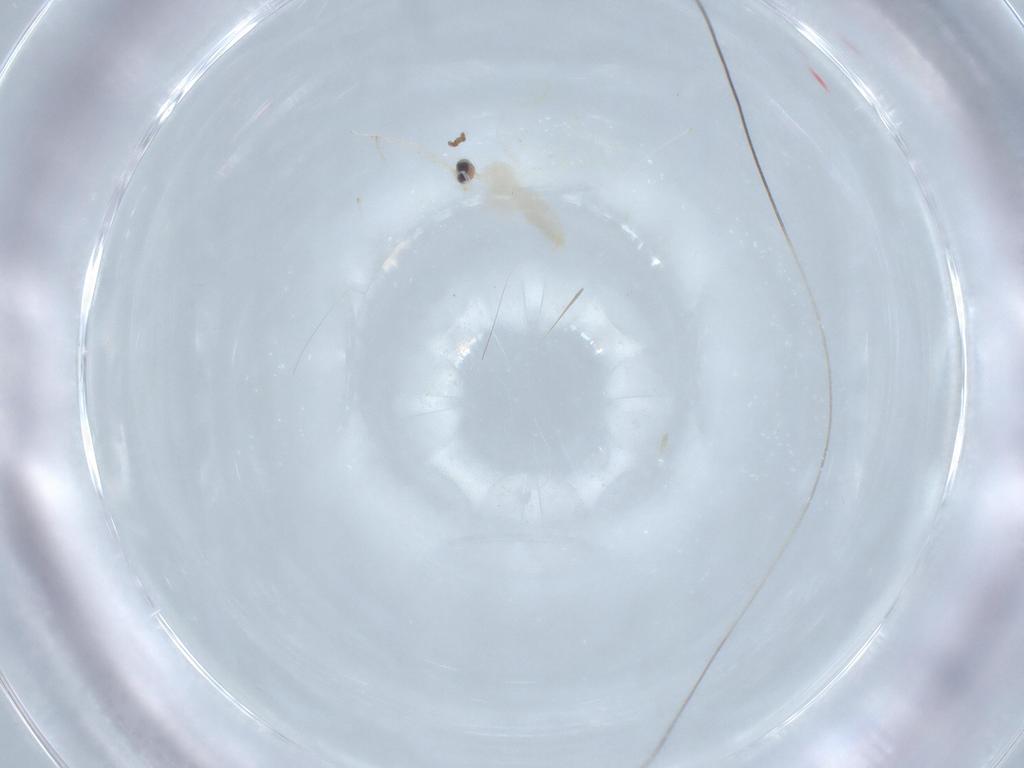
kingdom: Animalia
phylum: Arthropoda
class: Insecta
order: Diptera
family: Cecidomyiidae
